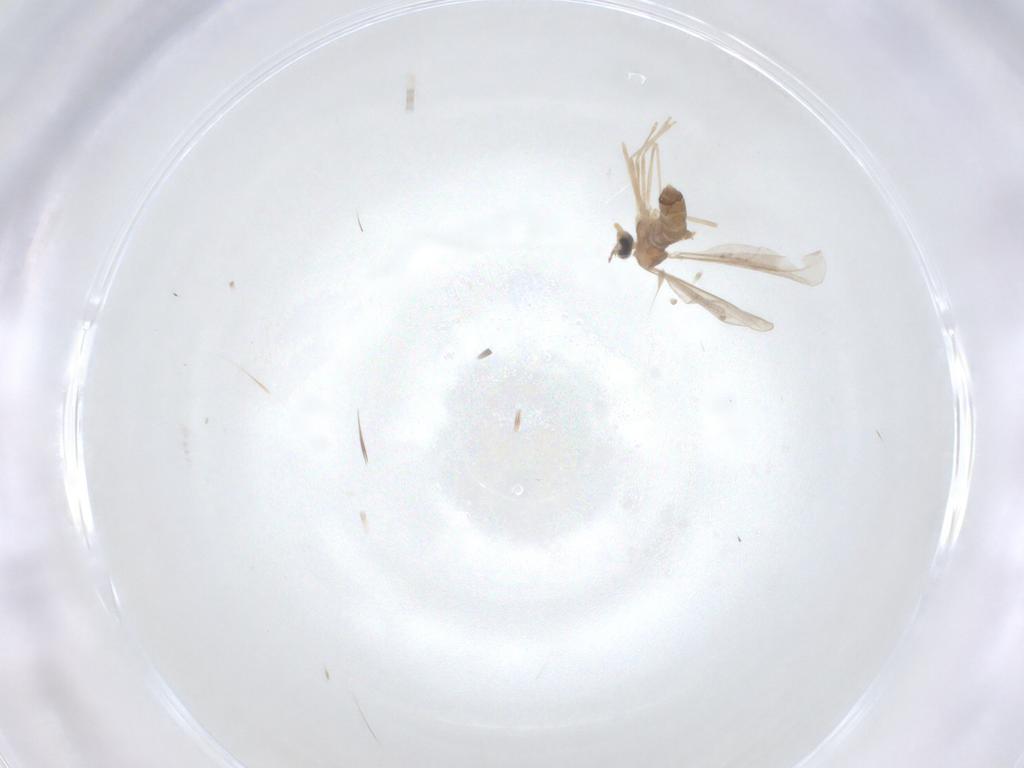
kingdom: Animalia
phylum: Arthropoda
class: Insecta
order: Diptera
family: Cecidomyiidae
